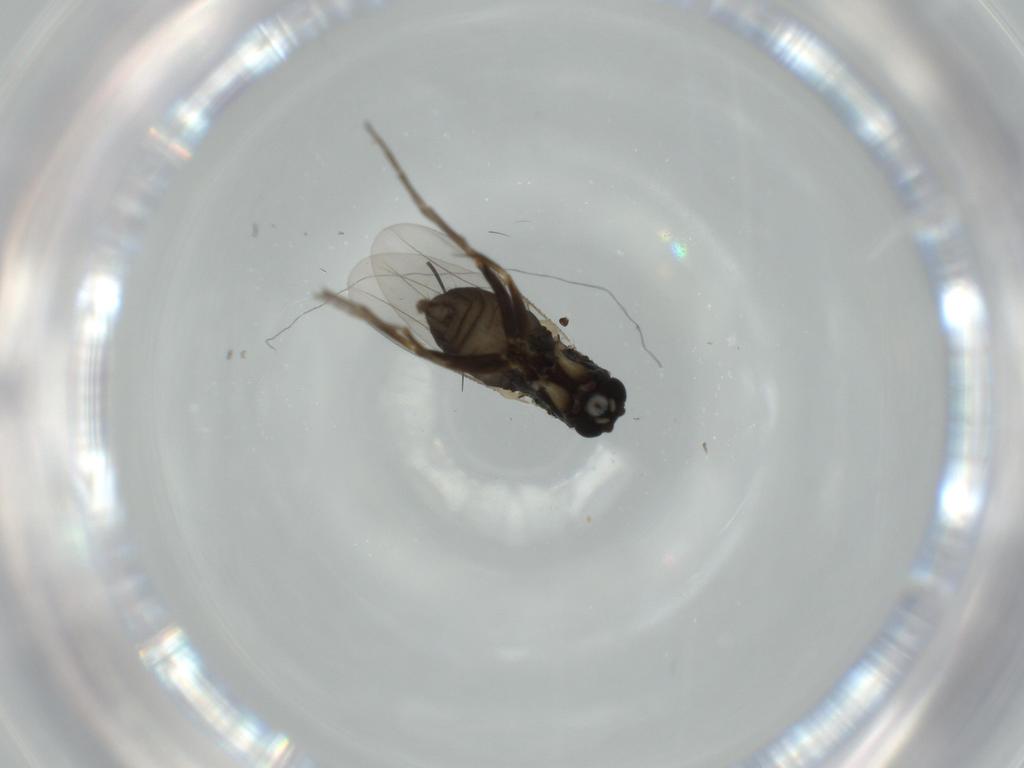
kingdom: Animalia
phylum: Arthropoda
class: Insecta
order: Diptera
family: Phoridae
